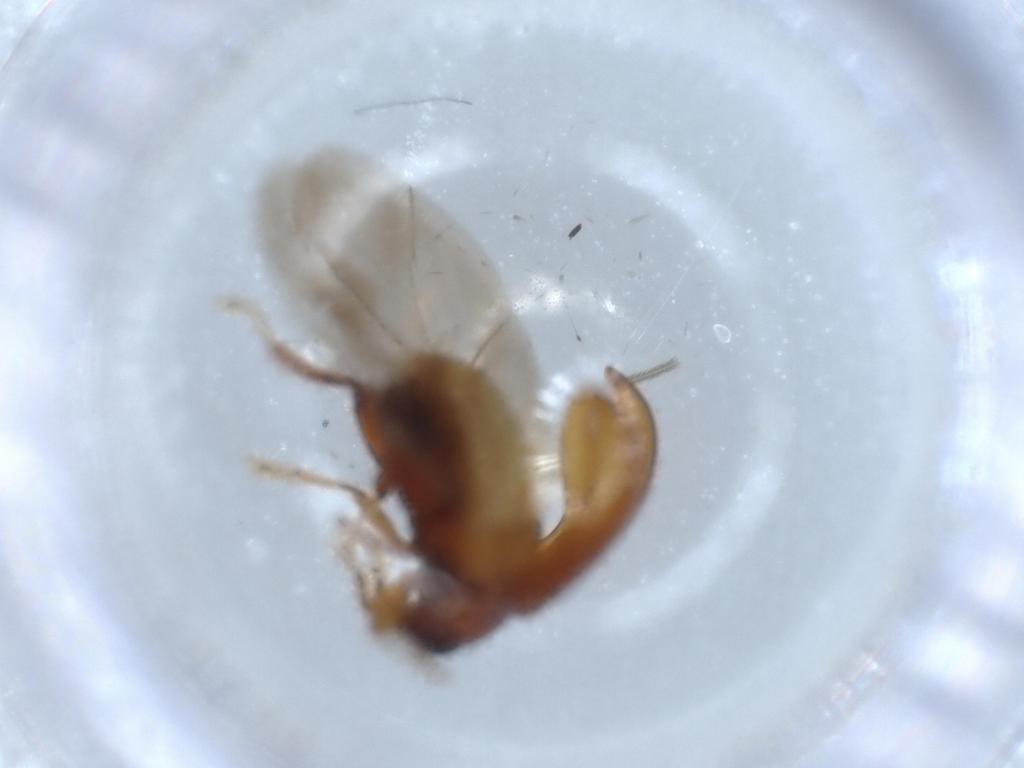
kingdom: Animalia
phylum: Arthropoda
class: Insecta
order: Coleoptera
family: Chrysomelidae
